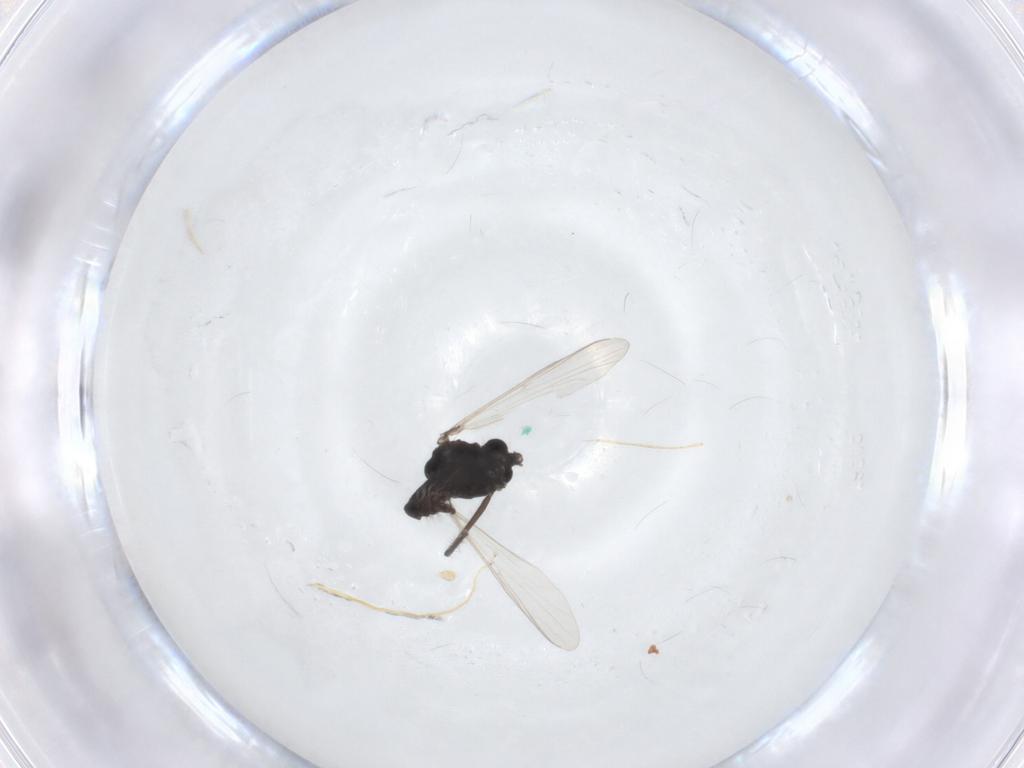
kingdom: Animalia
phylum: Arthropoda
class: Insecta
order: Diptera
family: Chironomidae
